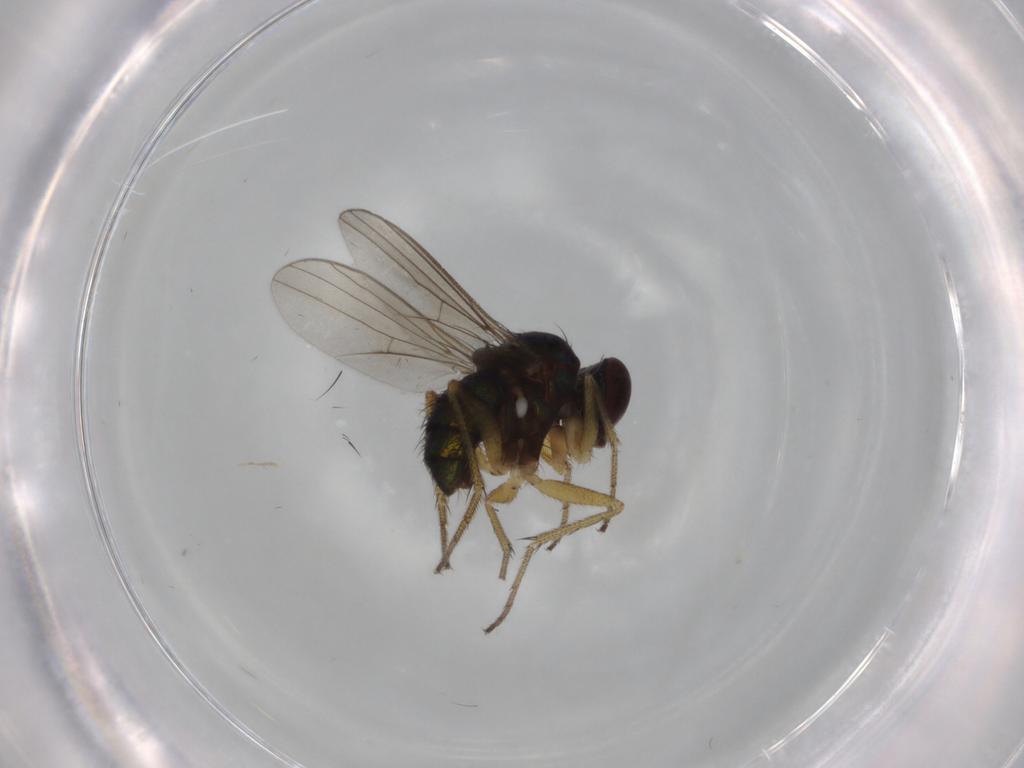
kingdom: Animalia
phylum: Arthropoda
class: Insecta
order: Diptera
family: Dolichopodidae
